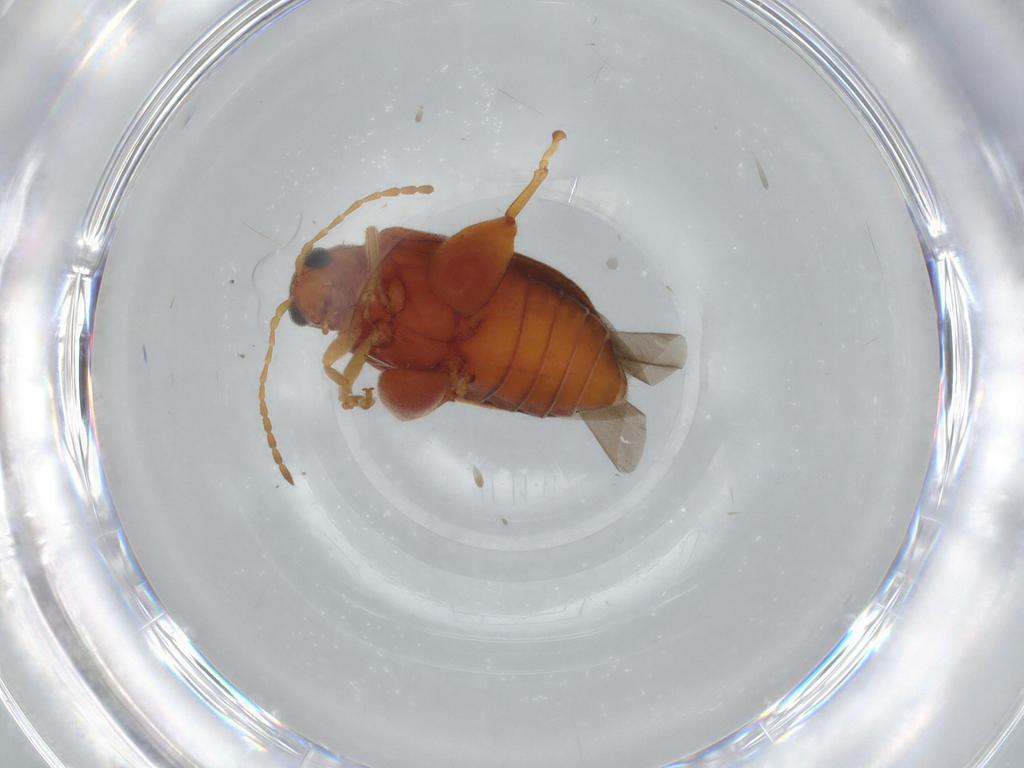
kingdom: Animalia
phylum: Arthropoda
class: Insecta
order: Coleoptera
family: Chrysomelidae
